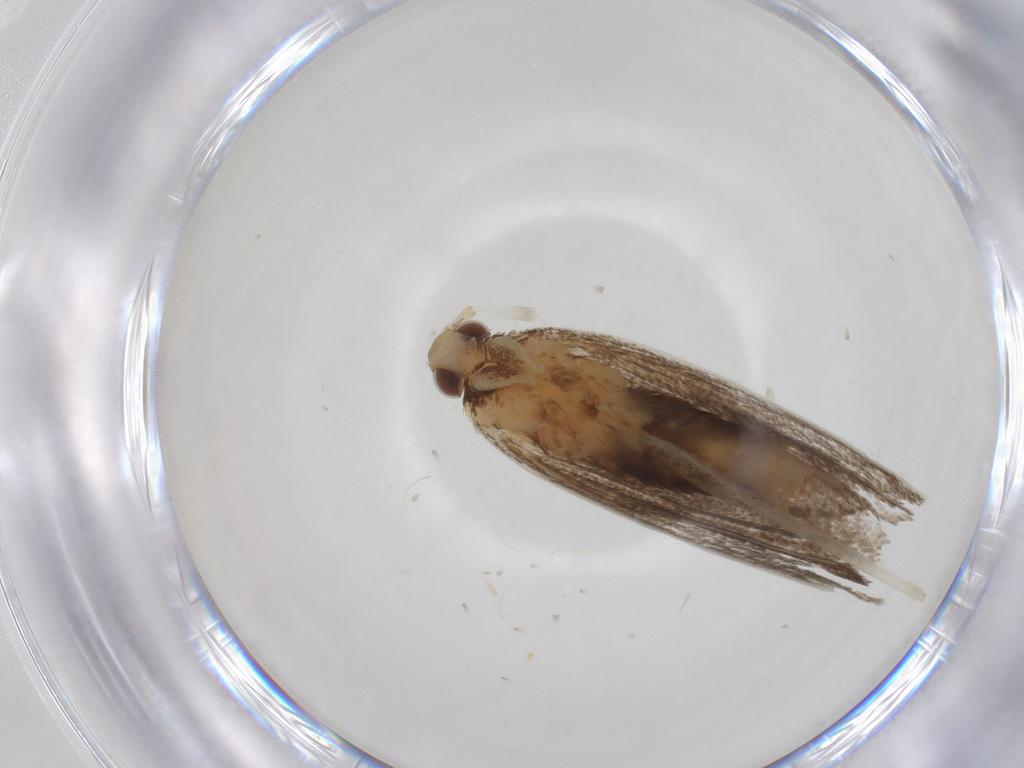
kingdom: Animalia
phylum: Arthropoda
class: Insecta
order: Lepidoptera
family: Lecithoceridae
